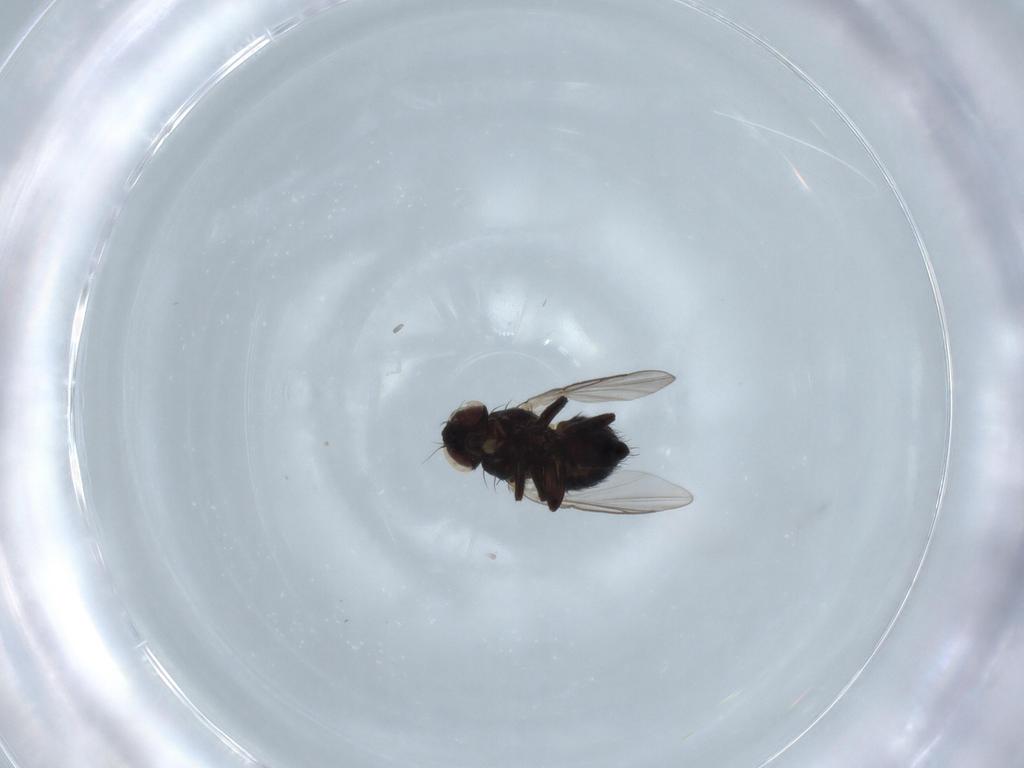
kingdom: Animalia
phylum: Arthropoda
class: Insecta
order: Diptera
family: Agromyzidae
